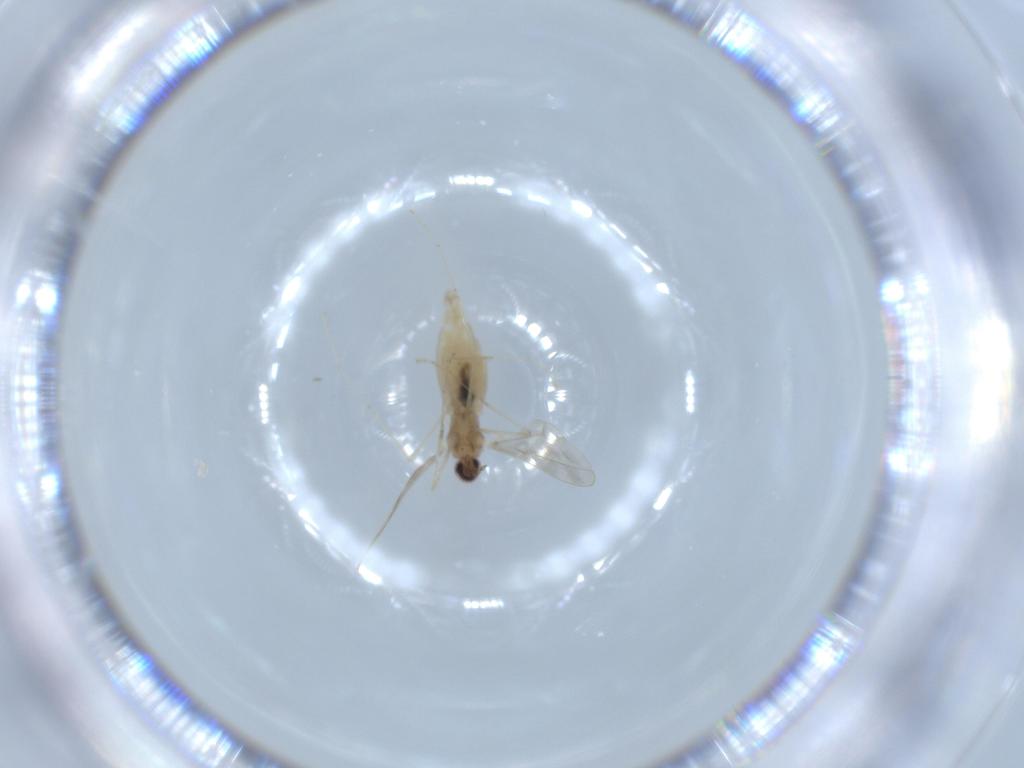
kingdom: Animalia
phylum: Arthropoda
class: Insecta
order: Diptera
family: Cecidomyiidae
